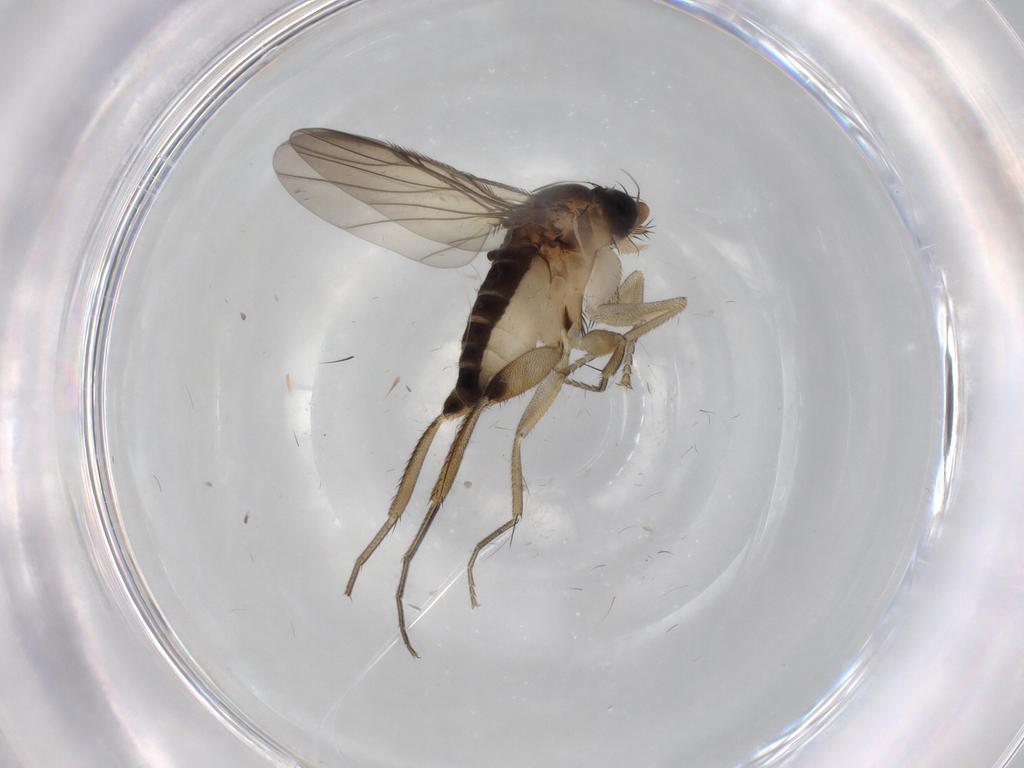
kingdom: Animalia
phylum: Arthropoda
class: Insecta
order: Diptera
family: Phoridae
